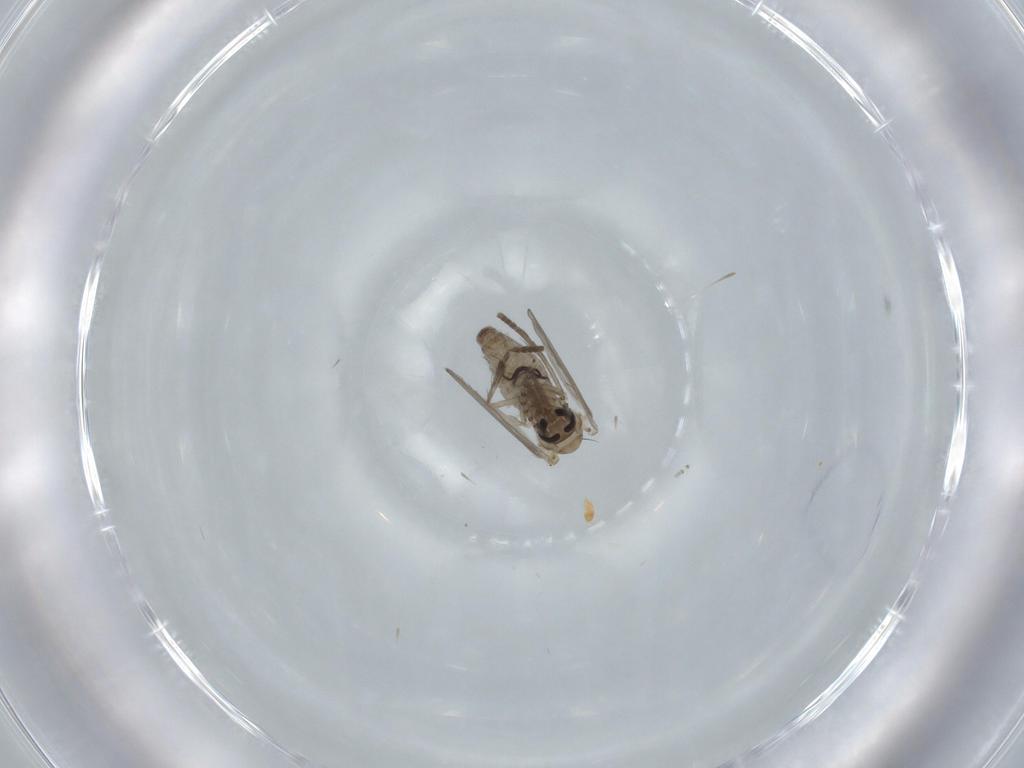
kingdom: Animalia
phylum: Arthropoda
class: Insecta
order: Diptera
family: Psychodidae
